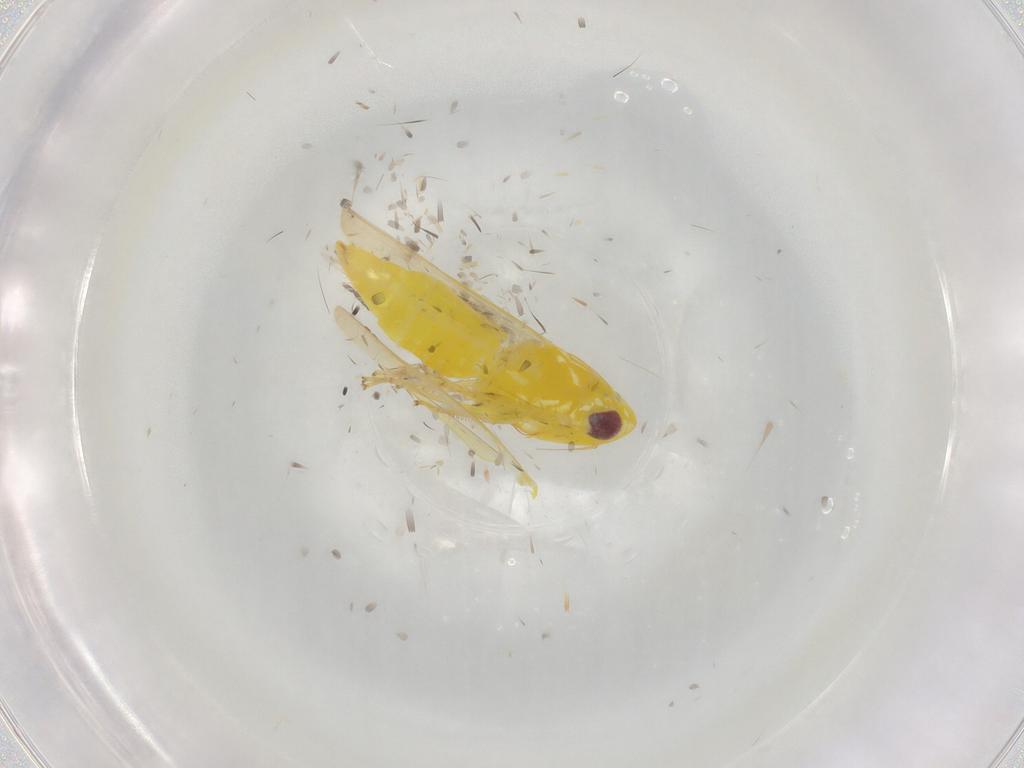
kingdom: Animalia
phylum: Arthropoda
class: Insecta
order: Hemiptera
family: Cicadellidae
